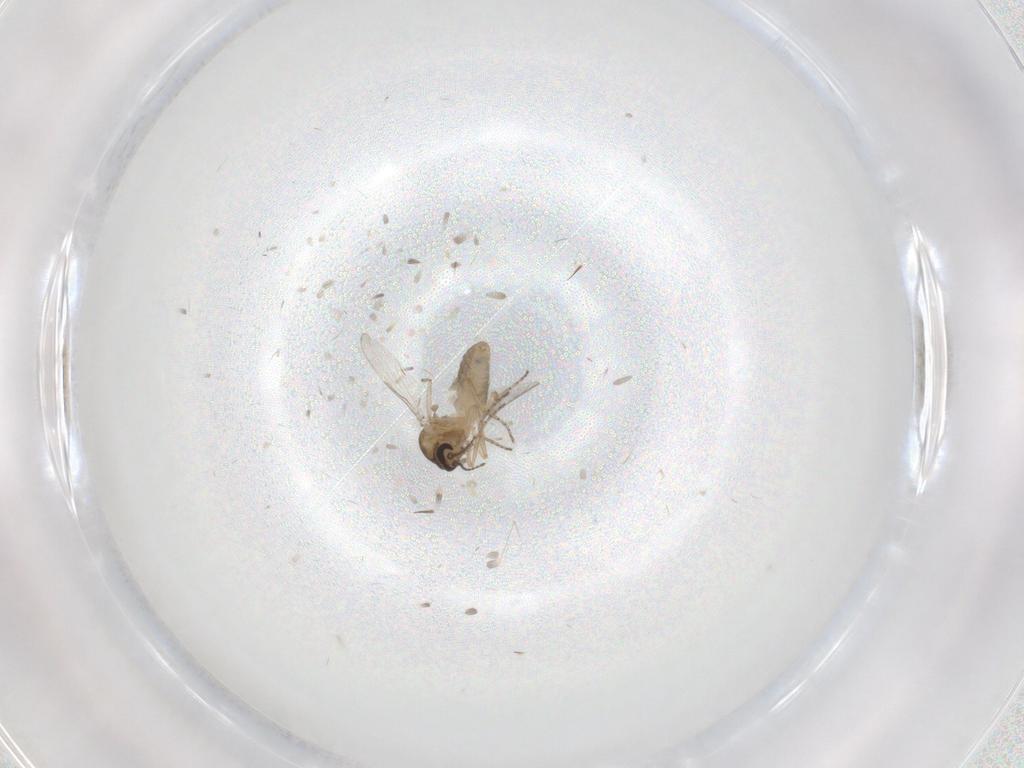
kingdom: Animalia
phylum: Arthropoda
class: Insecta
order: Diptera
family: Ceratopogonidae
